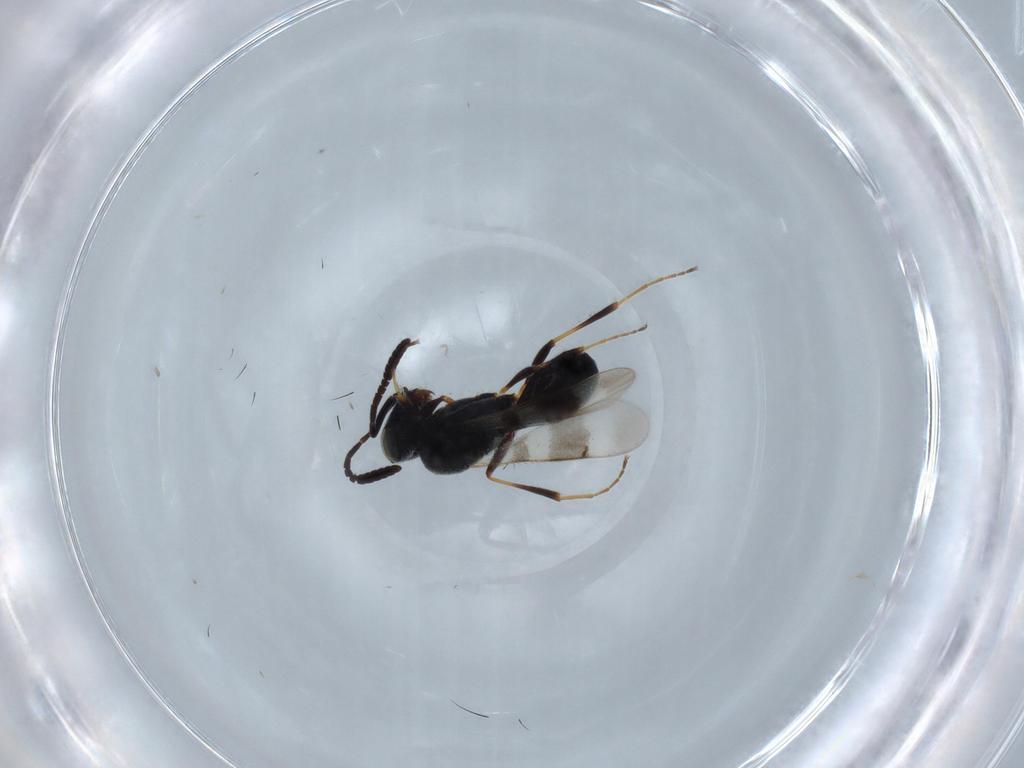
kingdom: Animalia
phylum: Arthropoda
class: Insecta
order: Hymenoptera
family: Scelionidae
